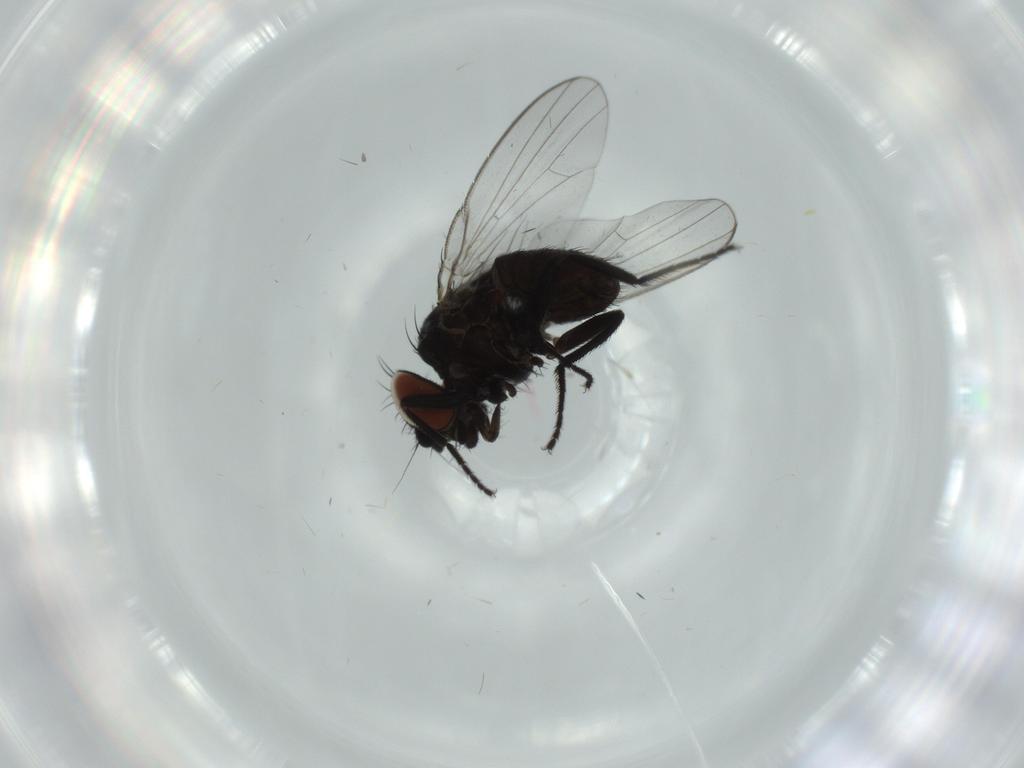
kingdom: Animalia
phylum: Arthropoda
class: Insecta
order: Diptera
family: Milichiidae
